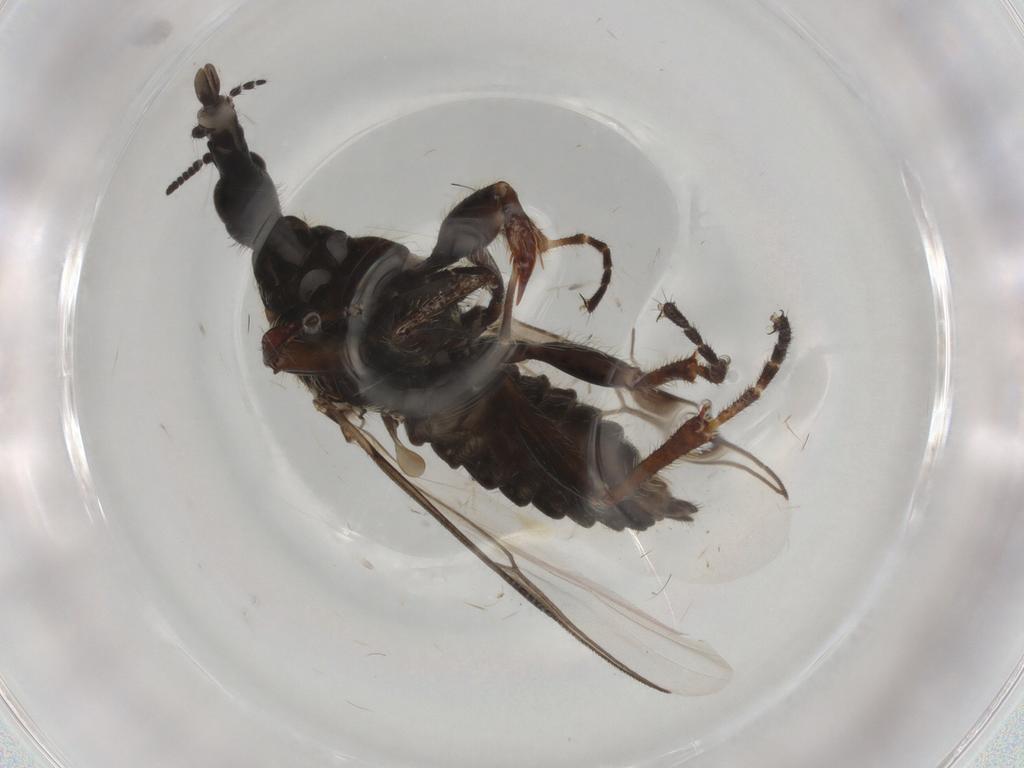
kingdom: Animalia
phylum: Arthropoda
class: Insecta
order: Diptera
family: Bibionidae
